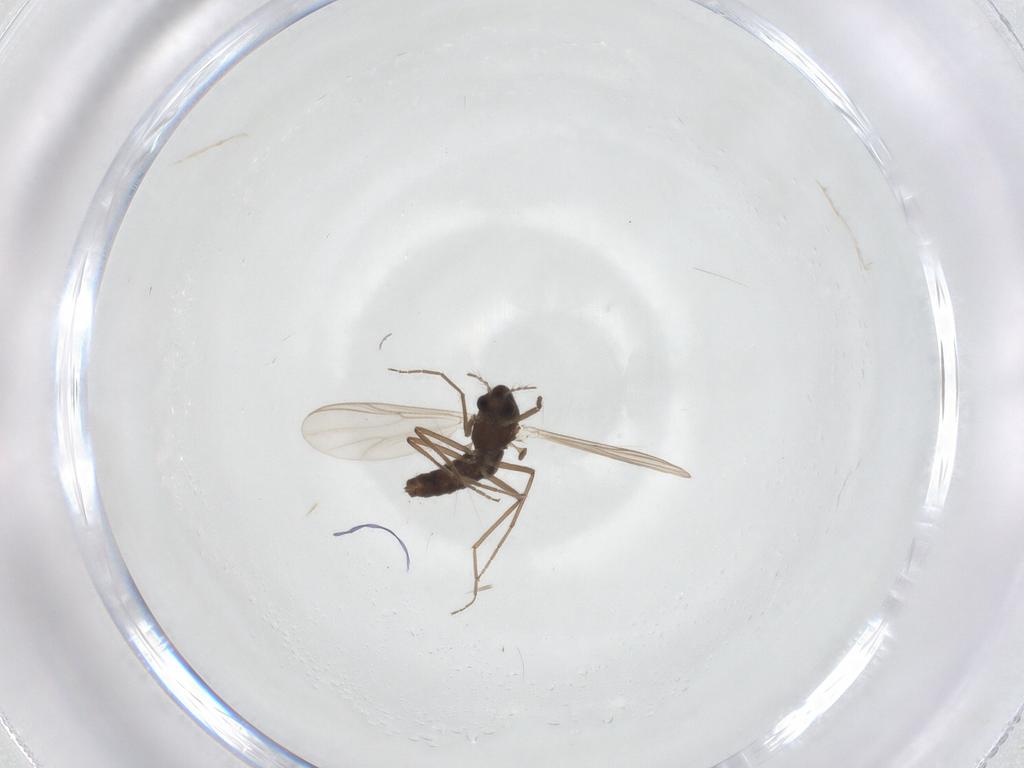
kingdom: Animalia
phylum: Arthropoda
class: Insecta
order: Diptera
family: Chironomidae
